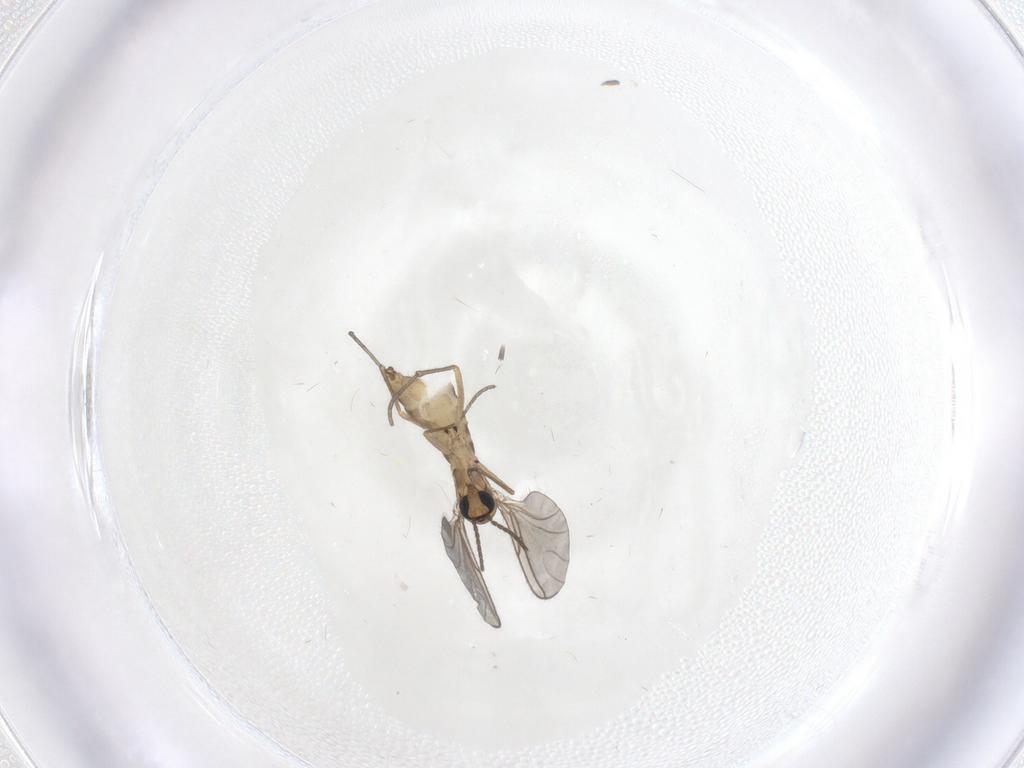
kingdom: Animalia
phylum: Arthropoda
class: Insecta
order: Diptera
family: Sciaridae
